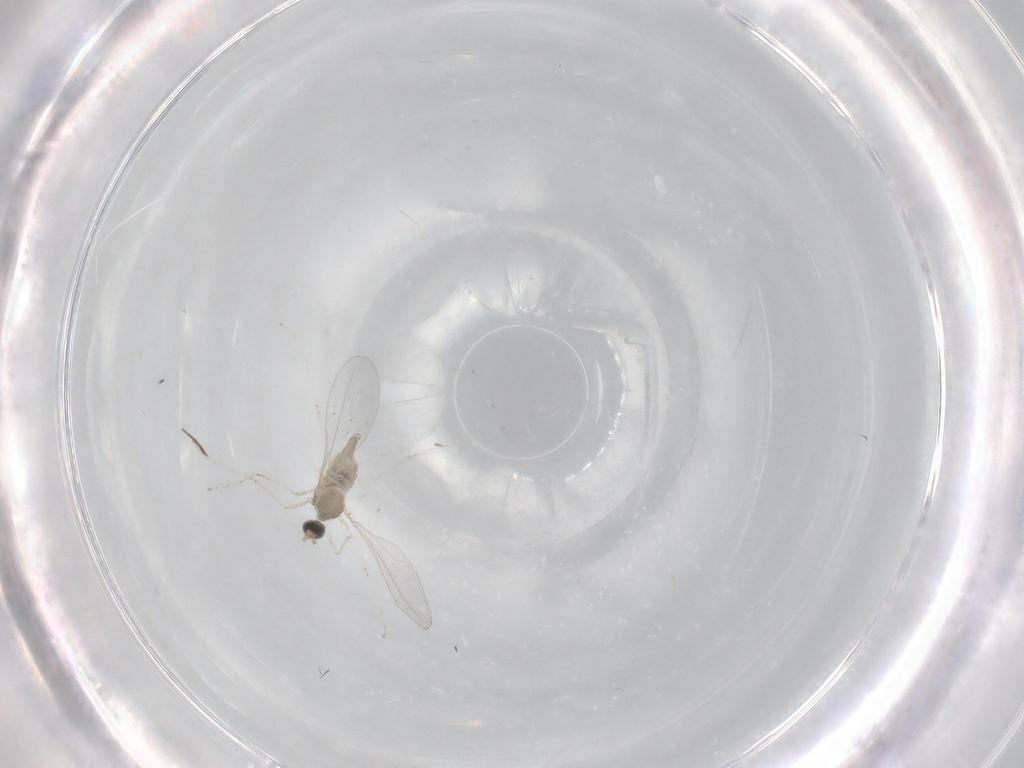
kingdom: Animalia
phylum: Arthropoda
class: Insecta
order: Diptera
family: Cecidomyiidae
